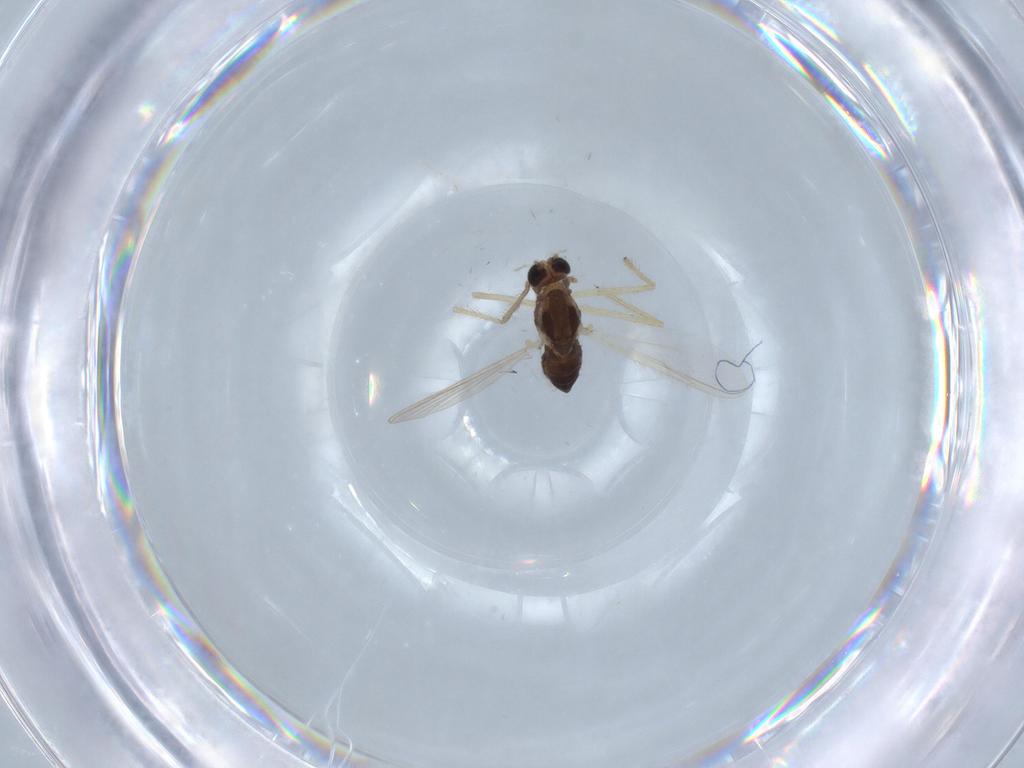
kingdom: Animalia
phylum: Arthropoda
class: Insecta
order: Diptera
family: Chironomidae
